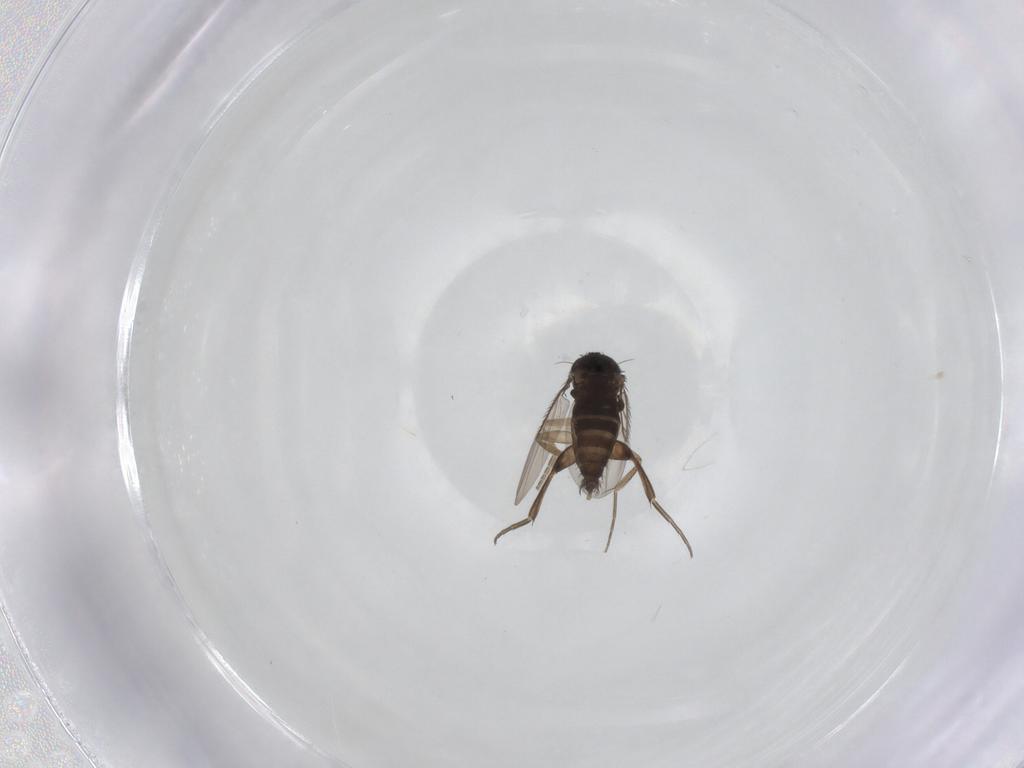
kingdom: Animalia
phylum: Arthropoda
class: Insecta
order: Diptera
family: Phoridae
